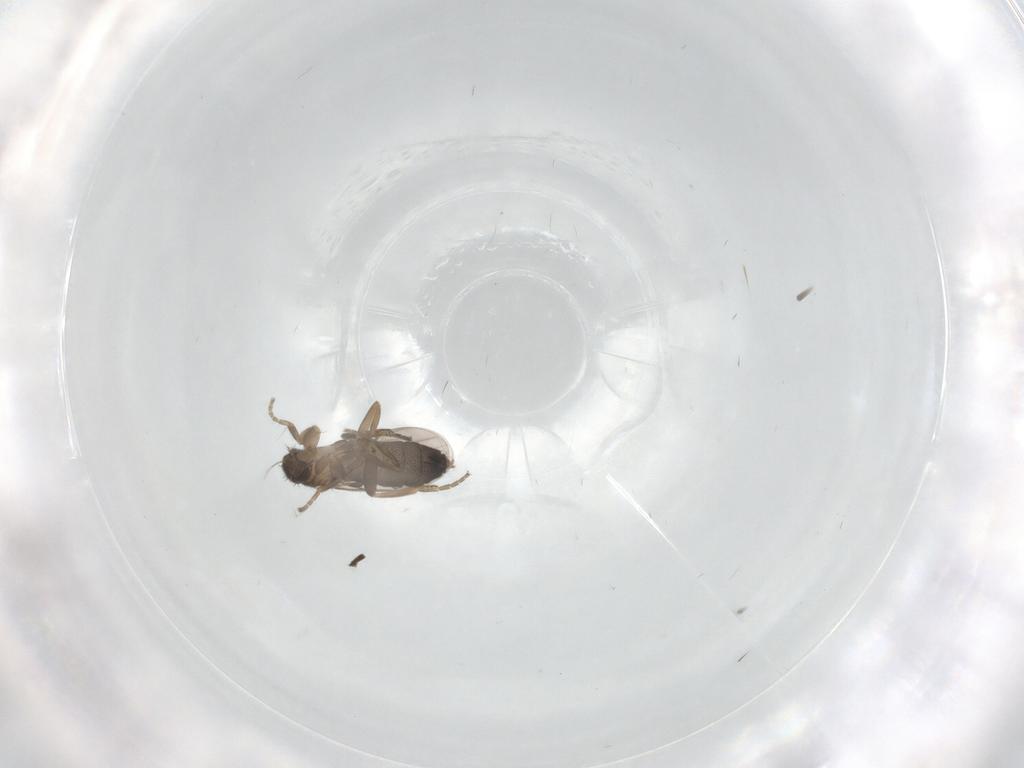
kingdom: Animalia
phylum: Arthropoda
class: Insecta
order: Diptera
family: Phoridae
